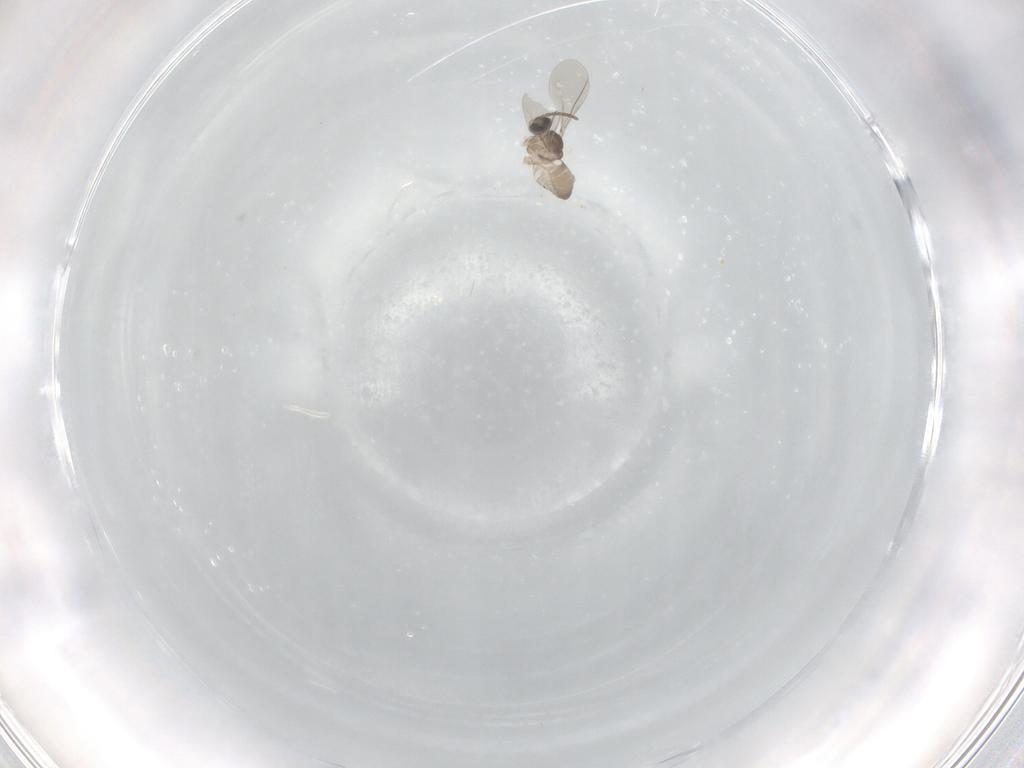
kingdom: Animalia
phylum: Arthropoda
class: Insecta
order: Diptera
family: Cecidomyiidae
